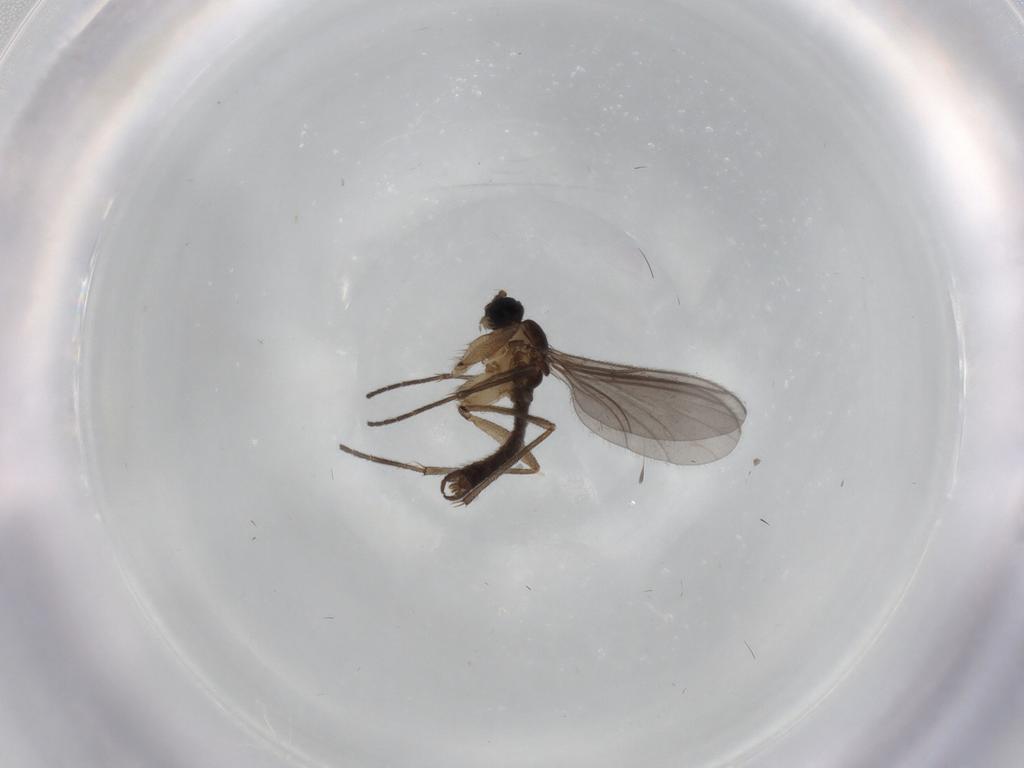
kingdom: Animalia
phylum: Arthropoda
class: Insecta
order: Diptera
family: Sciaridae
